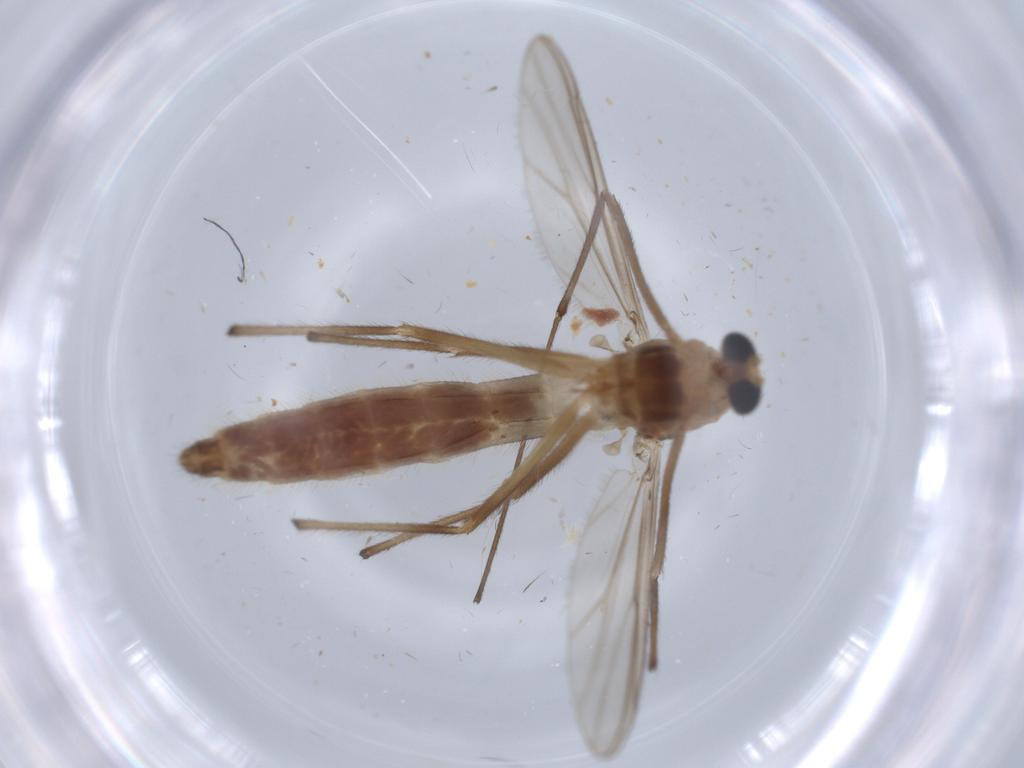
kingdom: Animalia
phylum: Arthropoda
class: Insecta
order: Diptera
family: Chironomidae
